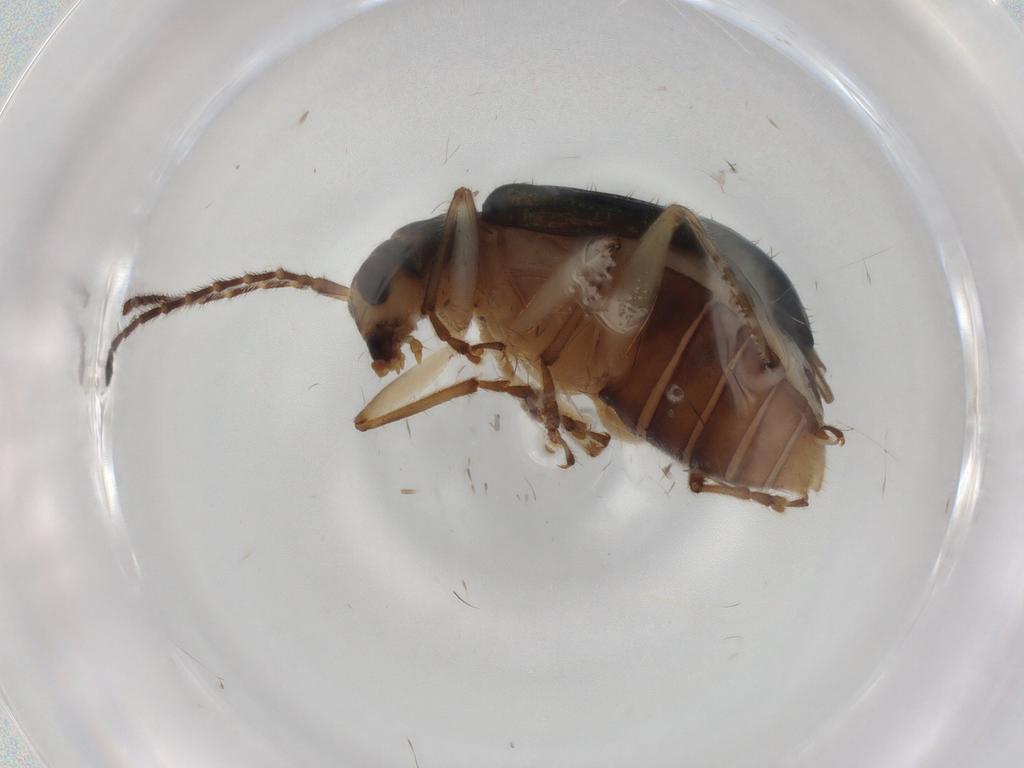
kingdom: Animalia
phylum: Arthropoda
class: Insecta
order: Coleoptera
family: Chrysomelidae
